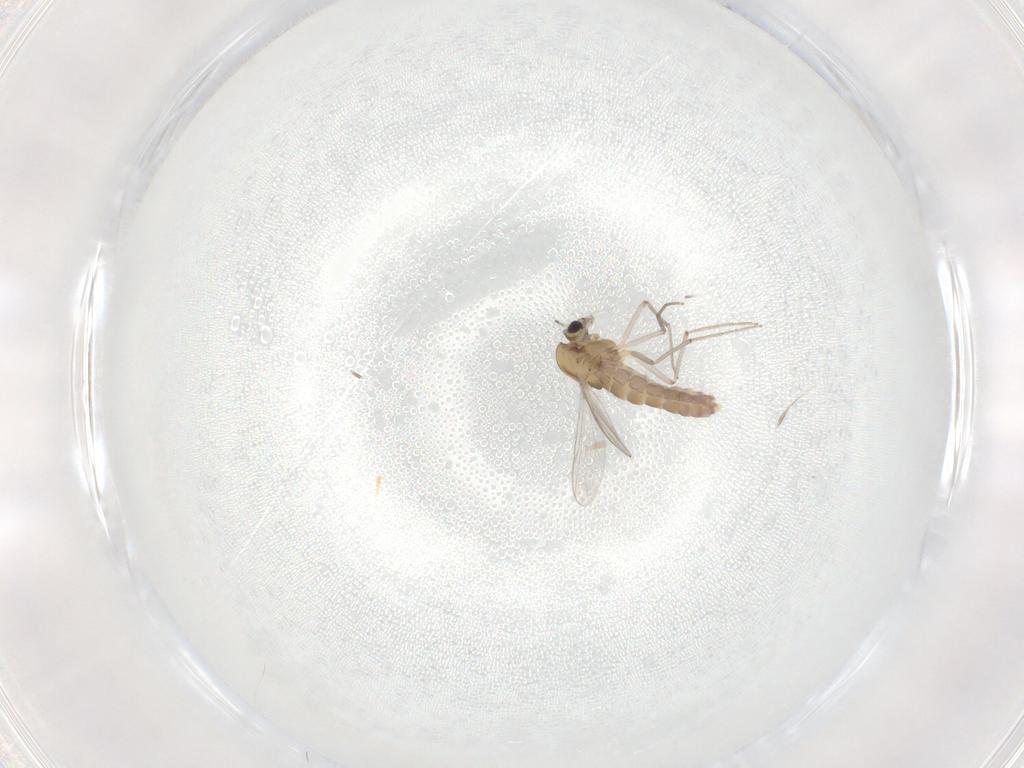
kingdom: Animalia
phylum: Arthropoda
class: Insecta
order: Diptera
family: Chironomidae
